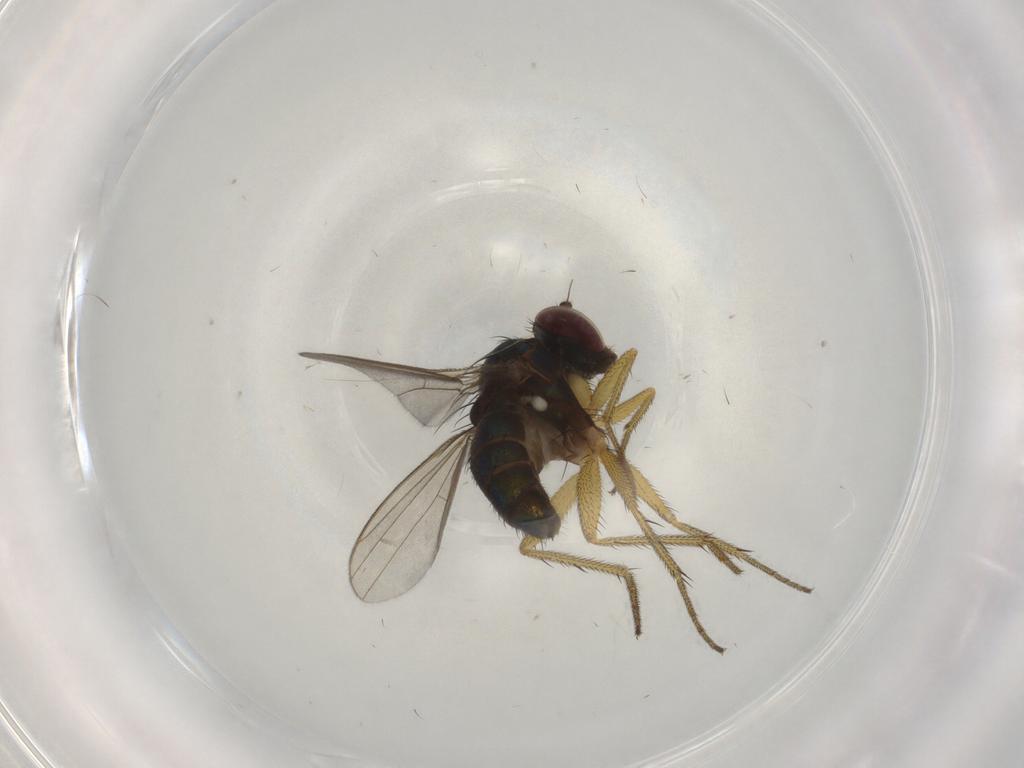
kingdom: Animalia
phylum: Arthropoda
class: Insecta
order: Diptera
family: Dolichopodidae
